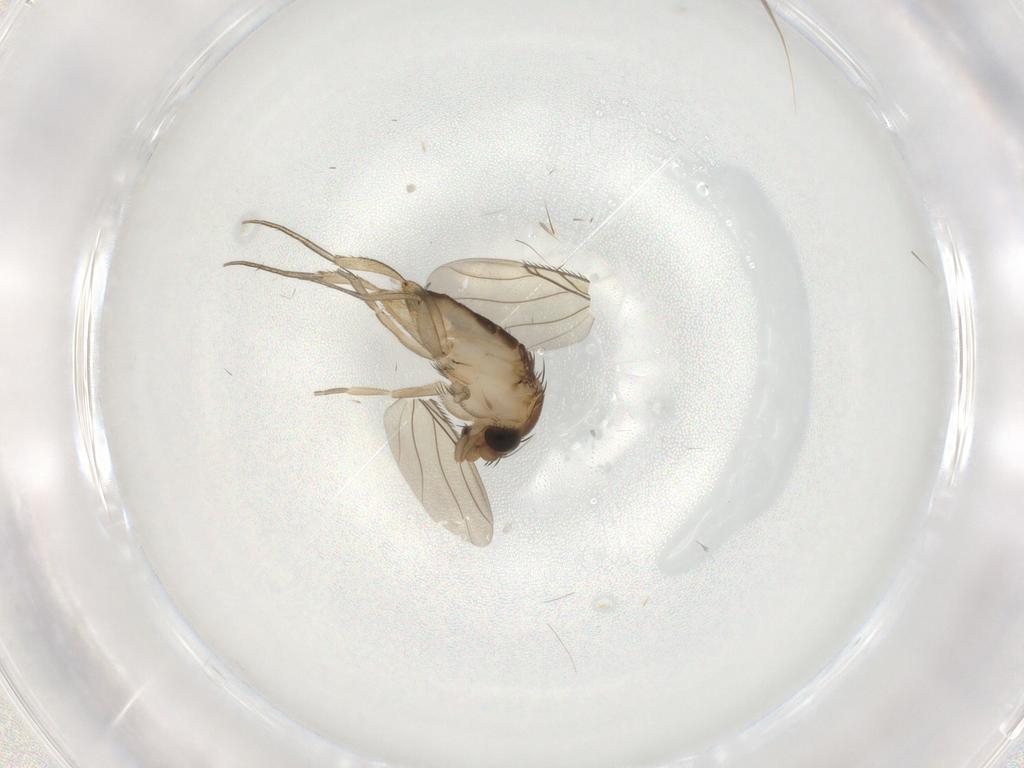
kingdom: Animalia
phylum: Arthropoda
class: Insecta
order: Diptera
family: Phoridae
